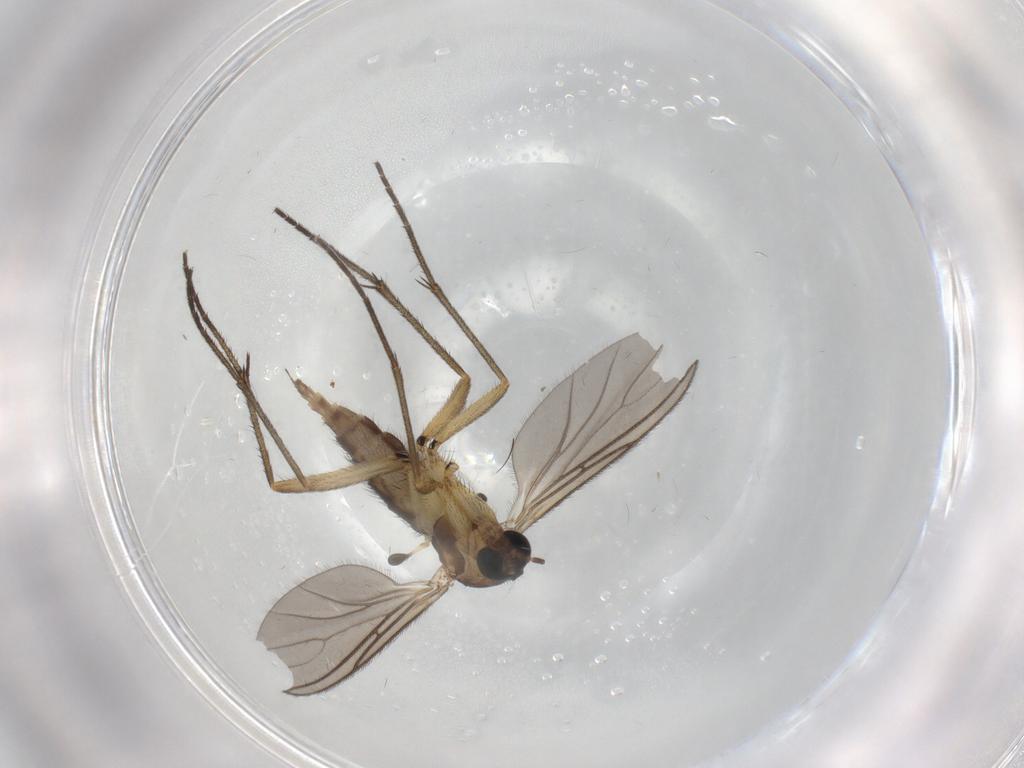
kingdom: Animalia
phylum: Arthropoda
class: Insecta
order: Diptera
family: Sciaridae
